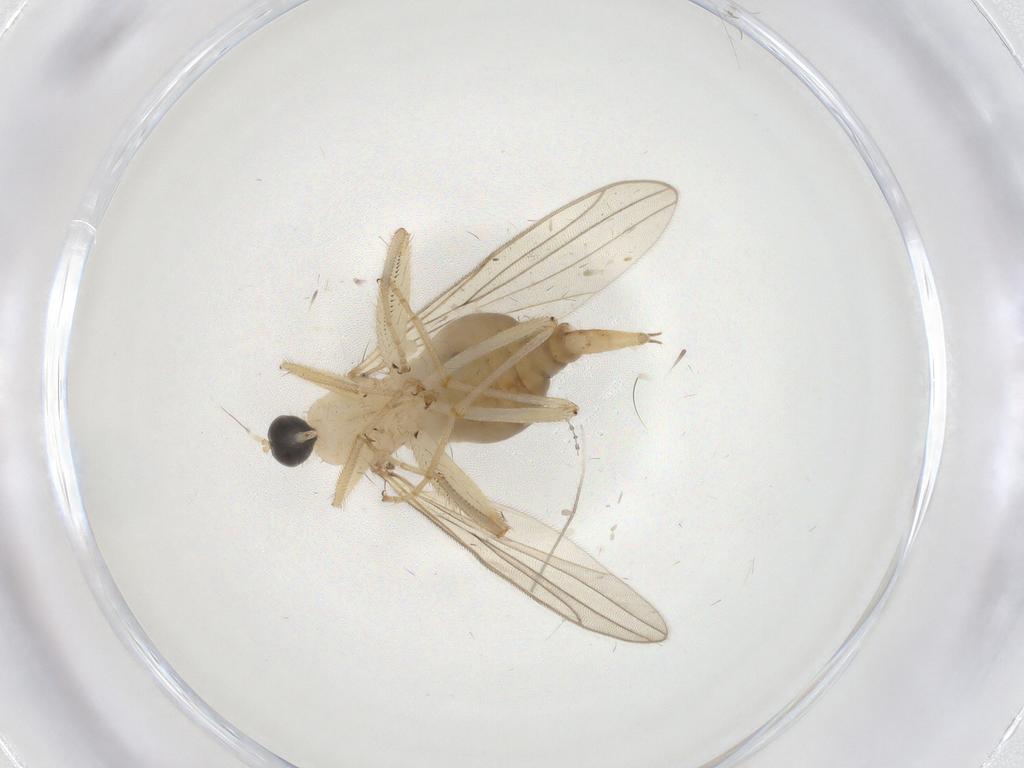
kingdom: Animalia
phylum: Arthropoda
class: Insecta
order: Diptera
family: Hybotidae
